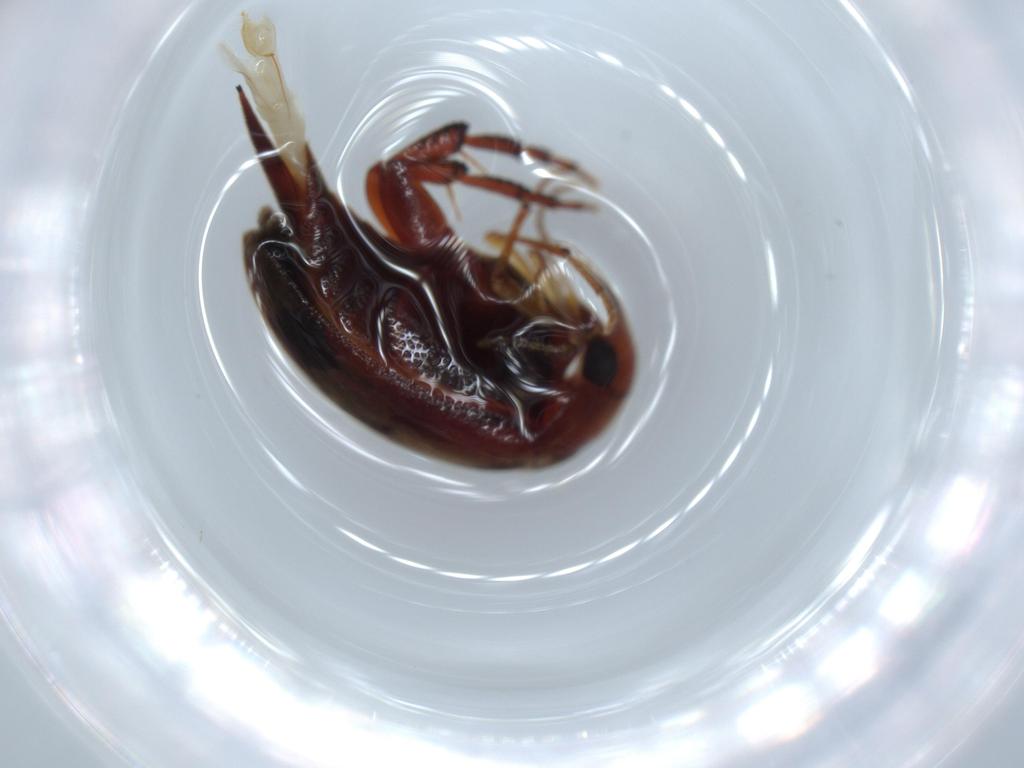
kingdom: Animalia
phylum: Arthropoda
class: Insecta
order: Coleoptera
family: Chrysomelidae
